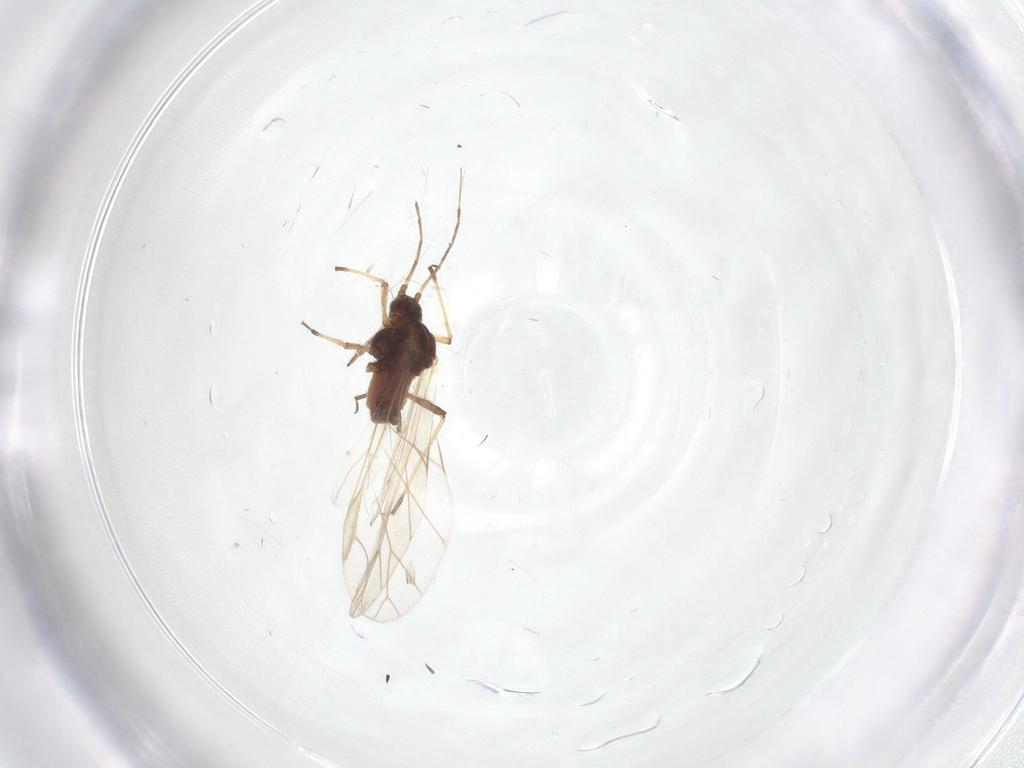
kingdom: Animalia
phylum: Arthropoda
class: Insecta
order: Hemiptera
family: Aphididae
